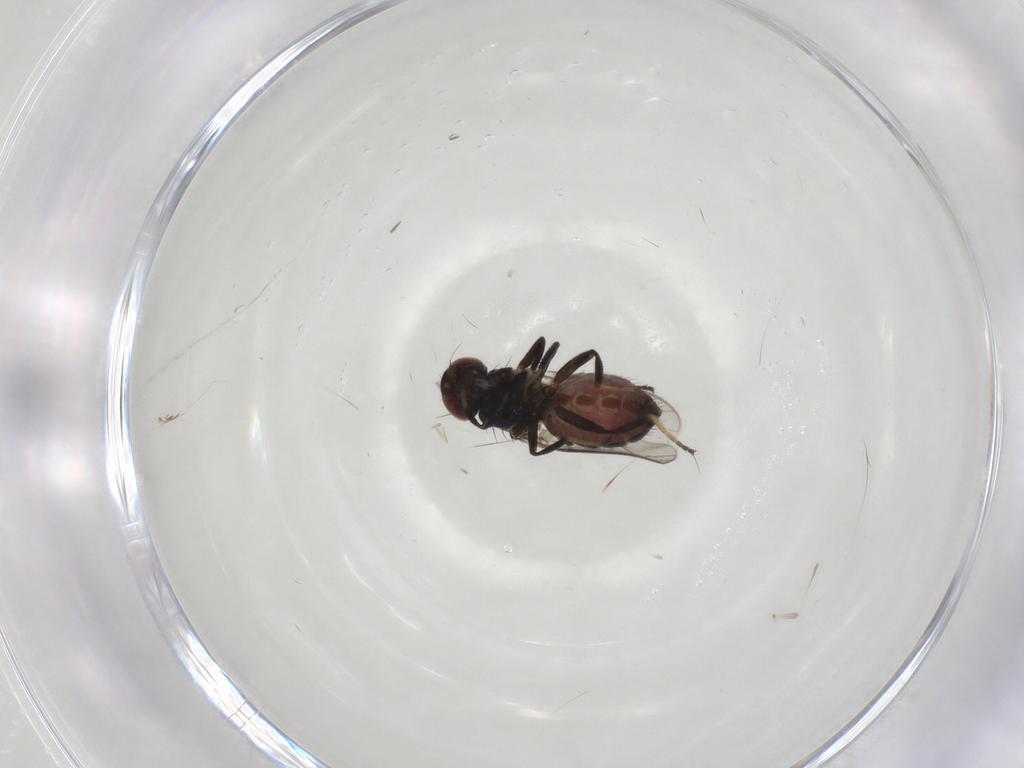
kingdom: Animalia
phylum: Arthropoda
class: Insecta
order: Diptera
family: Chloropidae
